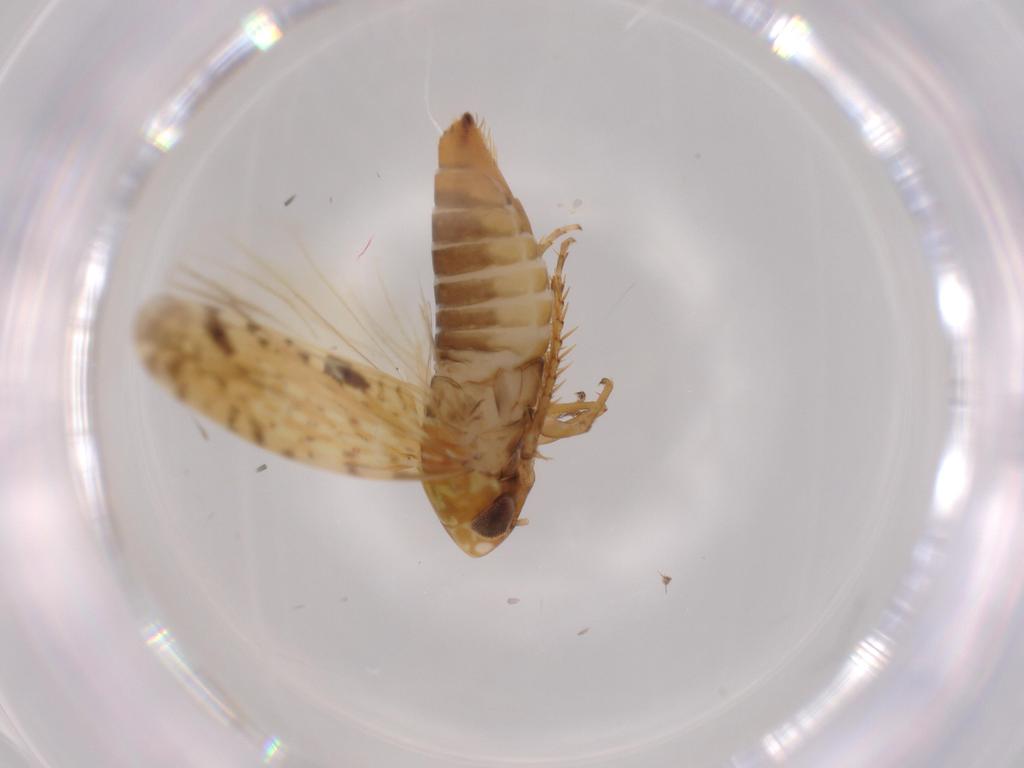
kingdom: Animalia
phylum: Arthropoda
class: Insecta
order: Hemiptera
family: Cicadellidae
